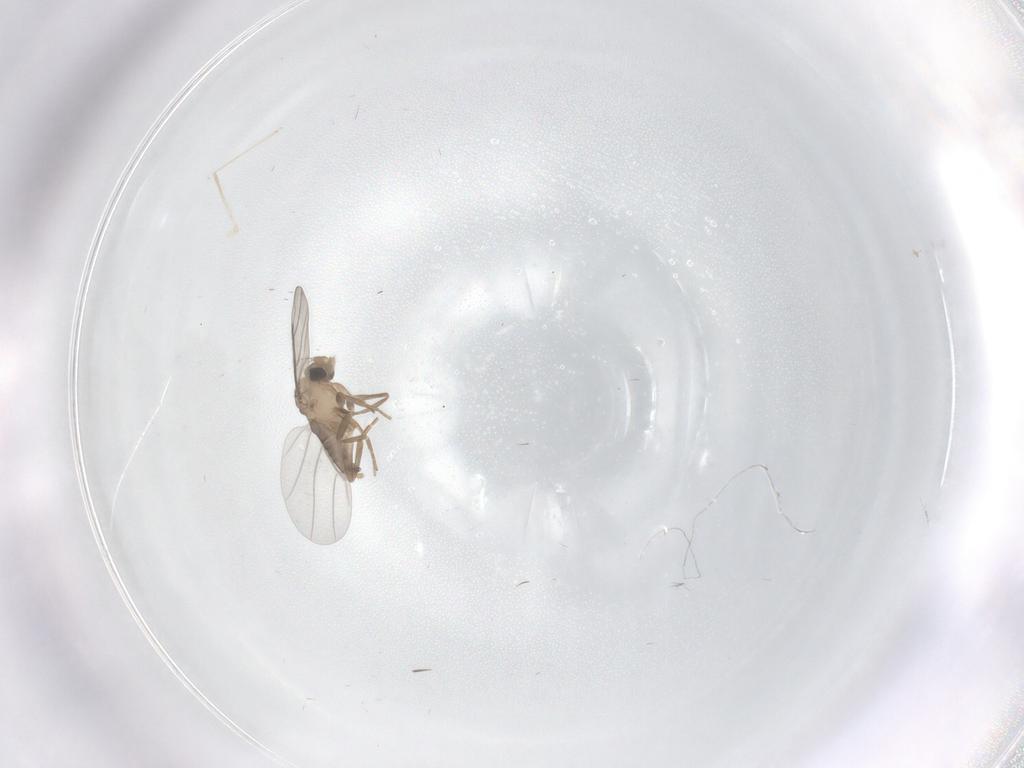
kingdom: Animalia
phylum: Arthropoda
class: Insecta
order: Diptera
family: Cecidomyiidae
